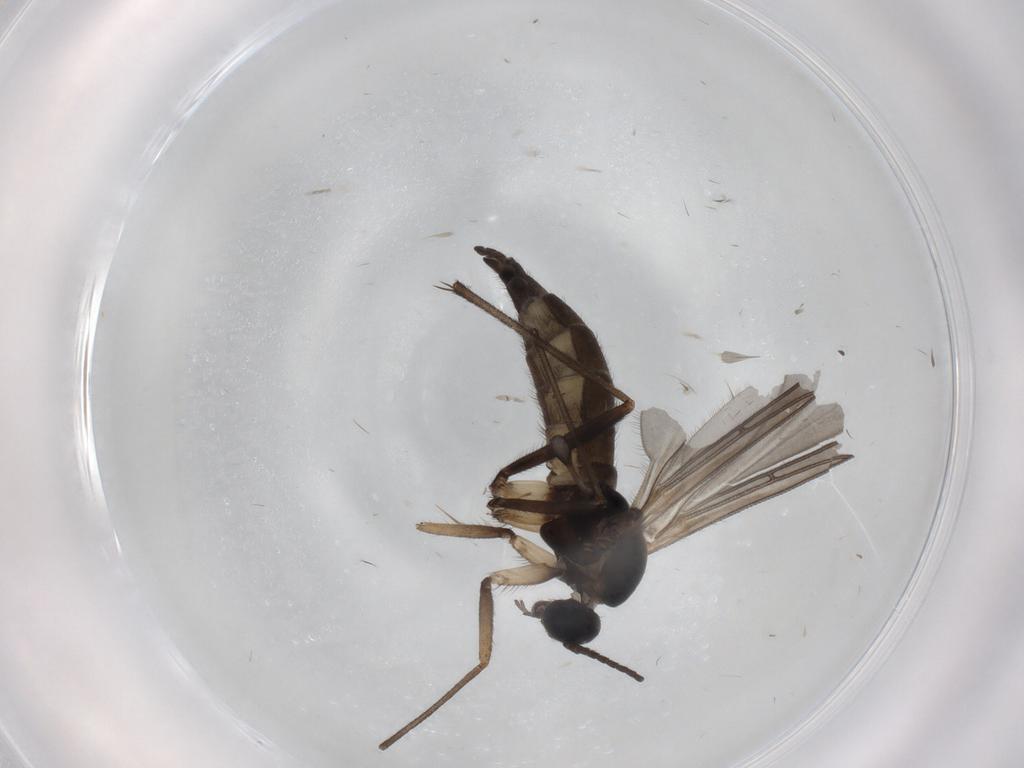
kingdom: Animalia
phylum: Arthropoda
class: Insecta
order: Diptera
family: Sciaridae
